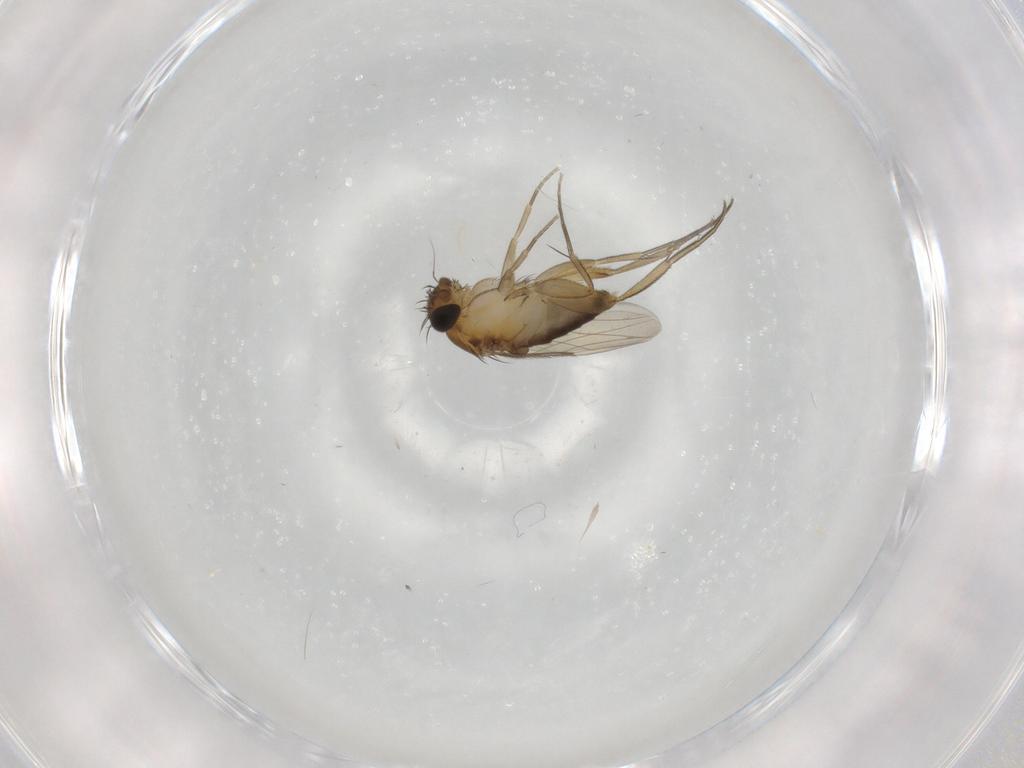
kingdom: Animalia
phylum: Arthropoda
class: Insecta
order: Diptera
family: Phoridae
